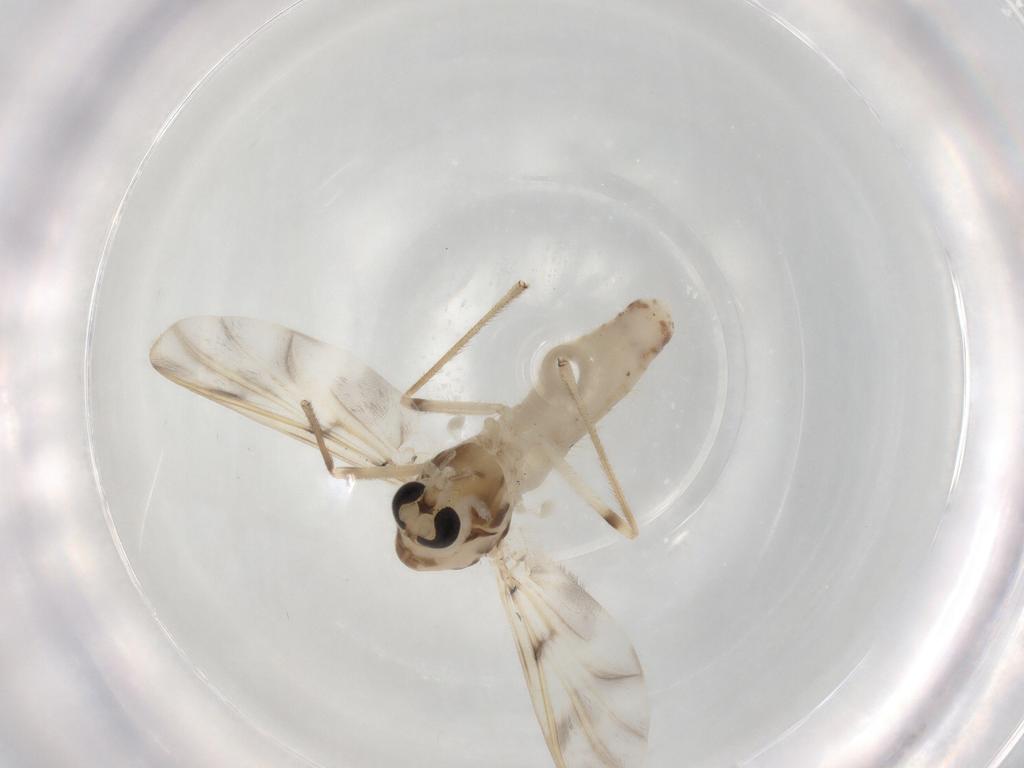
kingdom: Animalia
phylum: Arthropoda
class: Insecta
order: Diptera
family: Chironomidae
